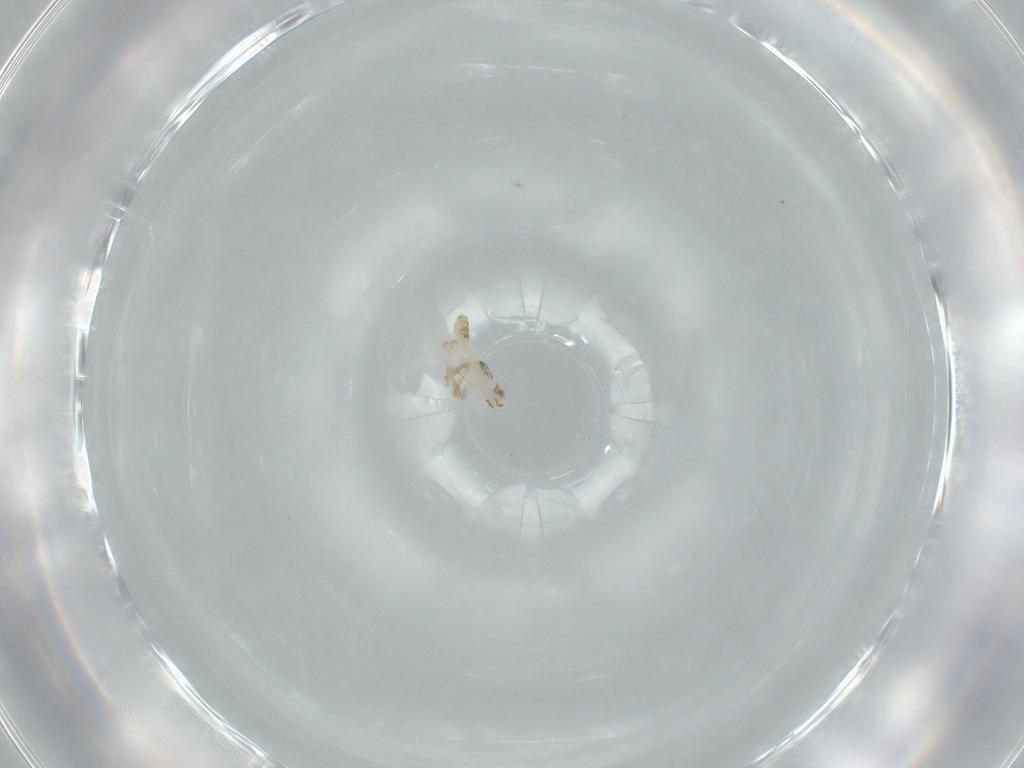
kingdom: Animalia
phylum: Arthropoda
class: Insecta
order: Hemiptera
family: Delphacidae
